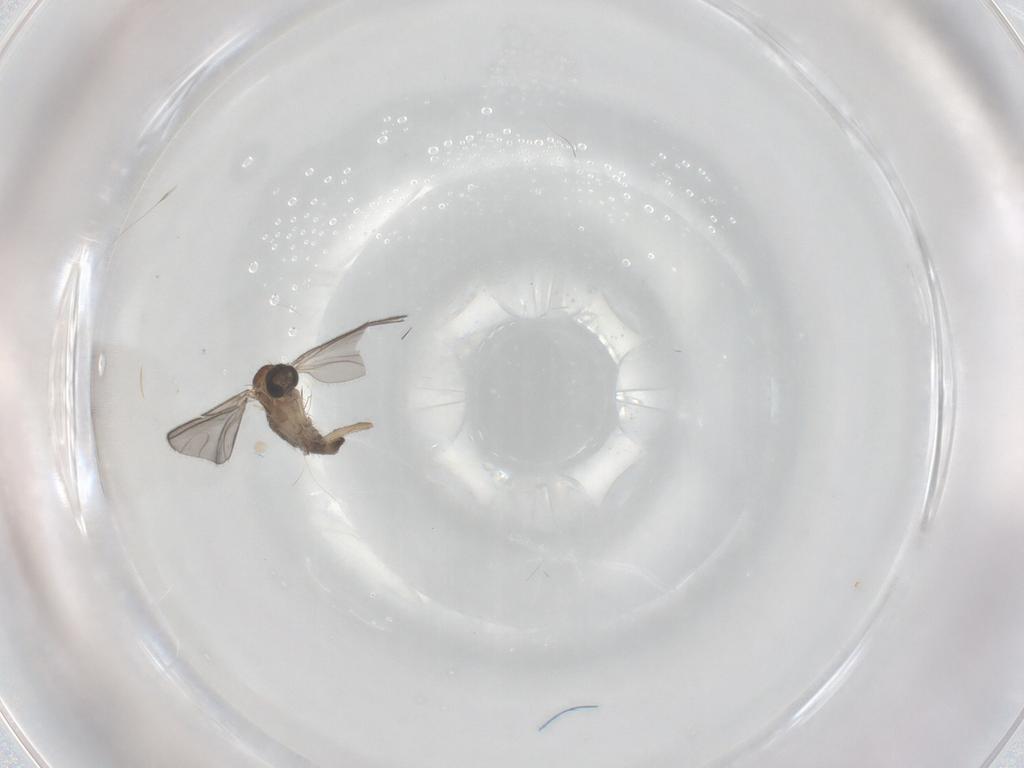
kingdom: Animalia
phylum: Arthropoda
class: Insecta
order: Diptera
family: Sciaridae
